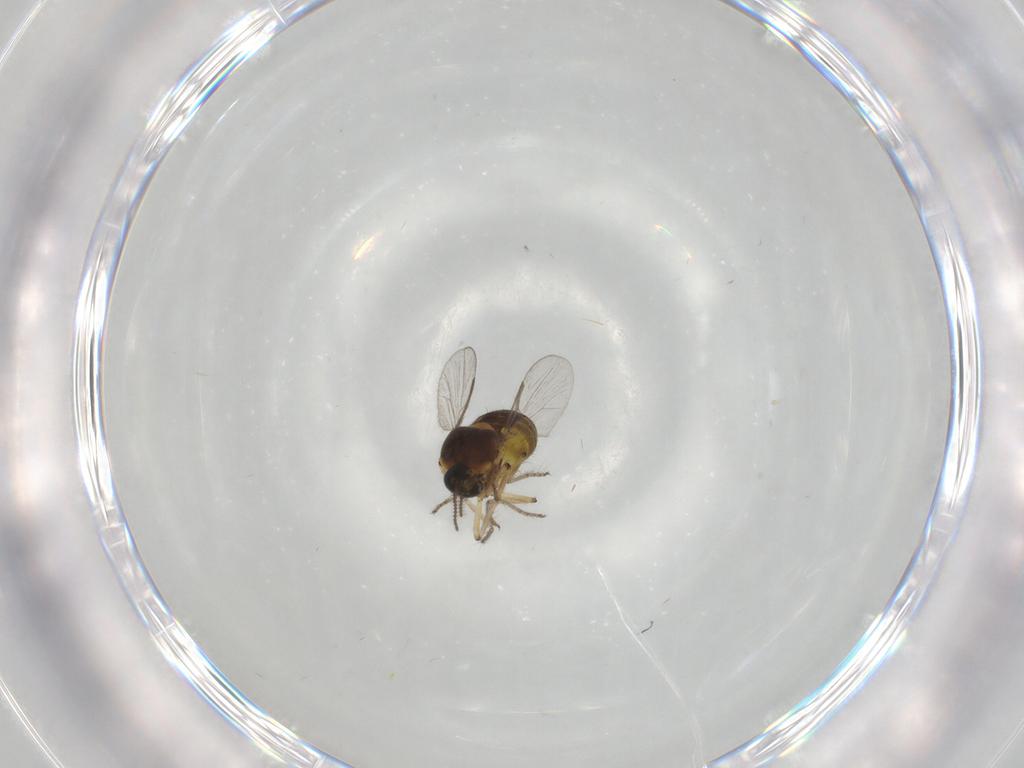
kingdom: Animalia
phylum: Arthropoda
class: Insecta
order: Diptera
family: Ceratopogonidae
